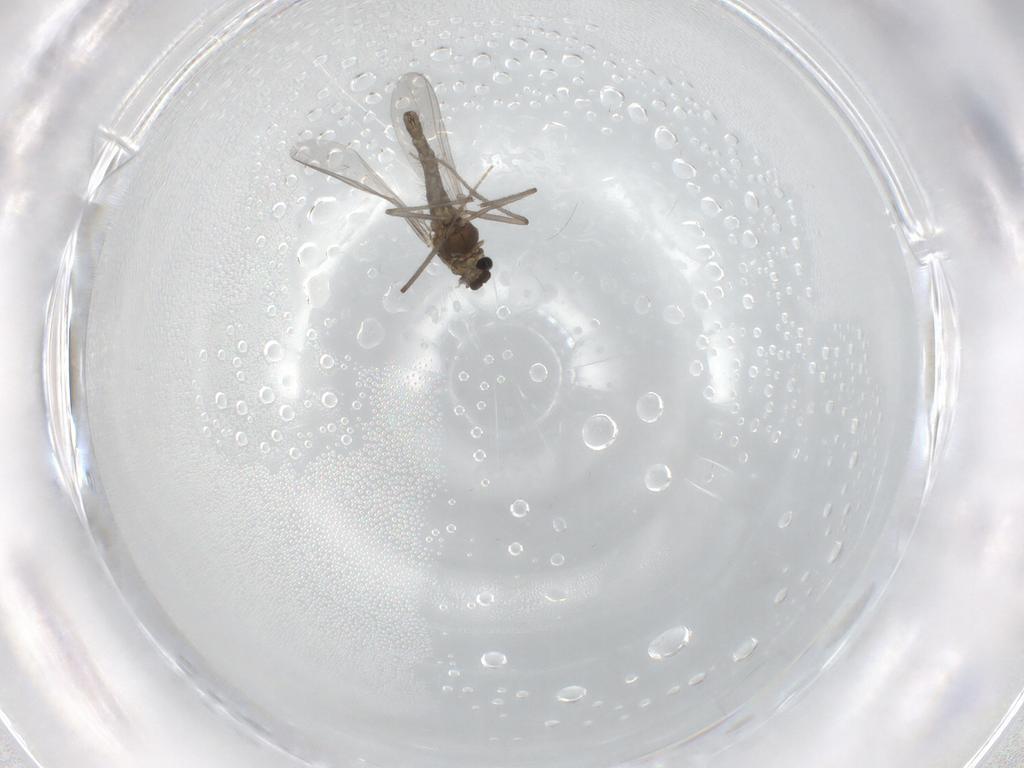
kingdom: Animalia
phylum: Arthropoda
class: Insecta
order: Diptera
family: Chironomidae
